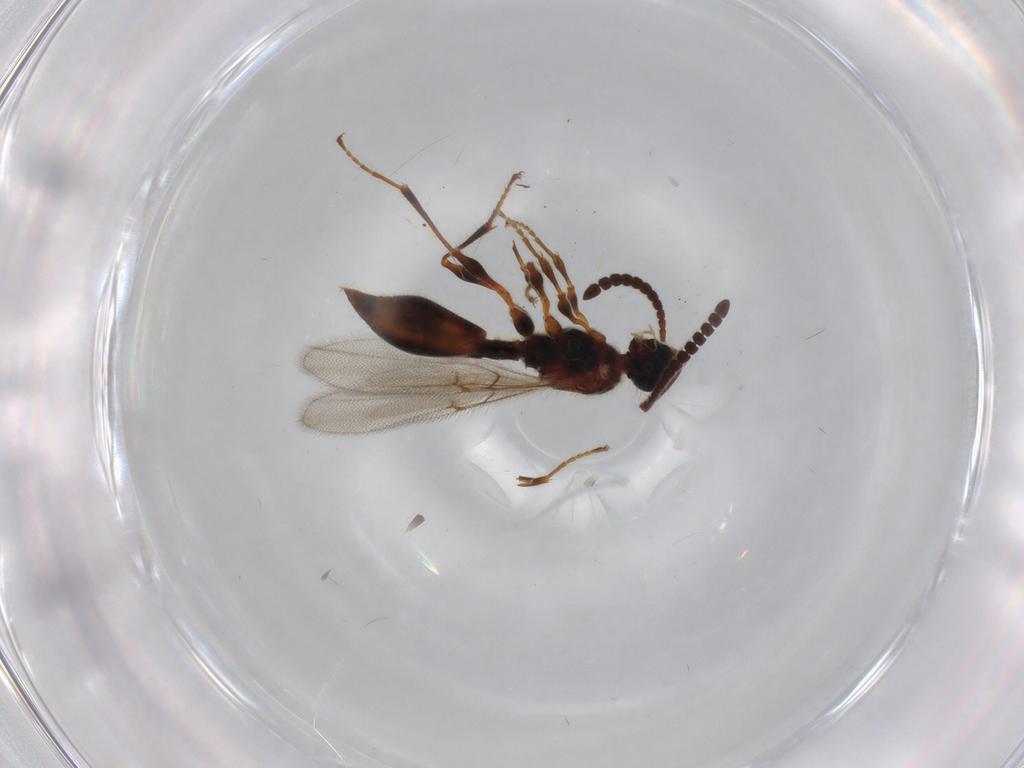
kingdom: Animalia
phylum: Arthropoda
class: Insecta
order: Hymenoptera
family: Diapriidae
